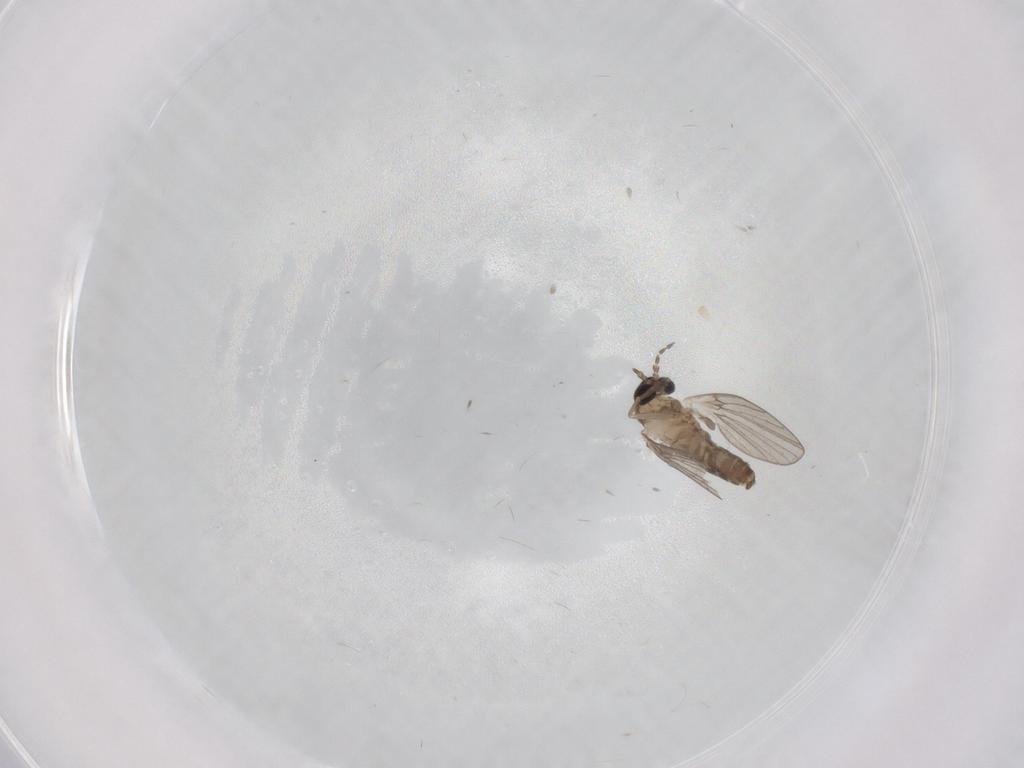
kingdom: Animalia
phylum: Arthropoda
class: Insecta
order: Diptera
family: Psychodidae
